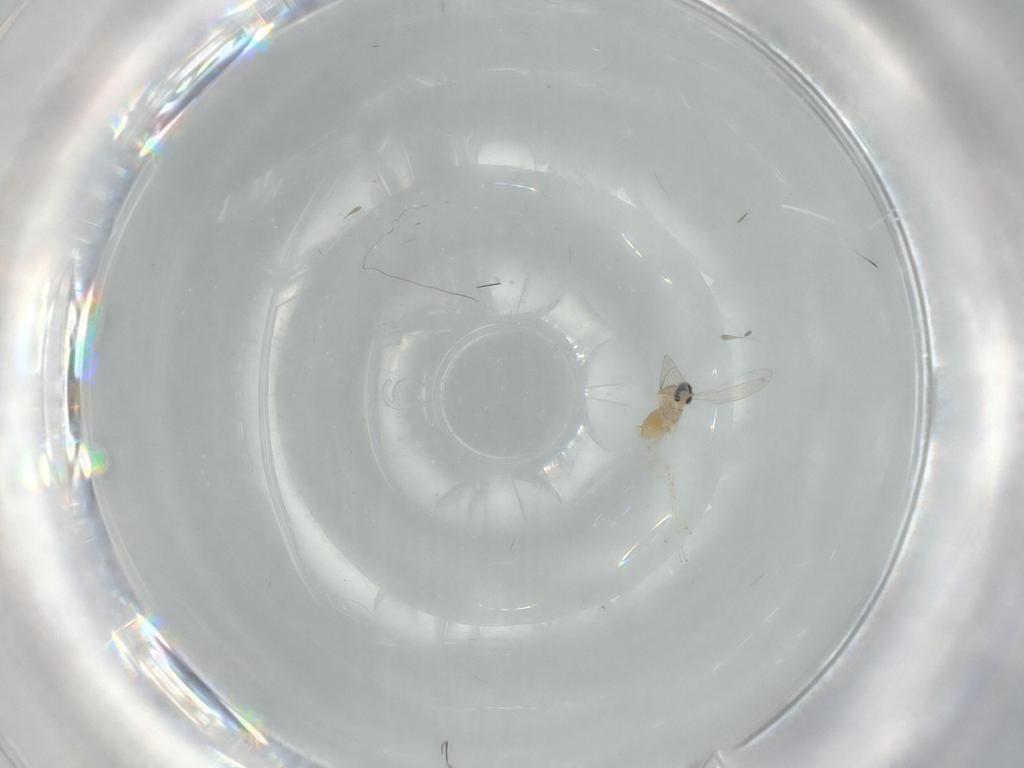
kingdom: Animalia
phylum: Arthropoda
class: Insecta
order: Diptera
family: Cecidomyiidae
